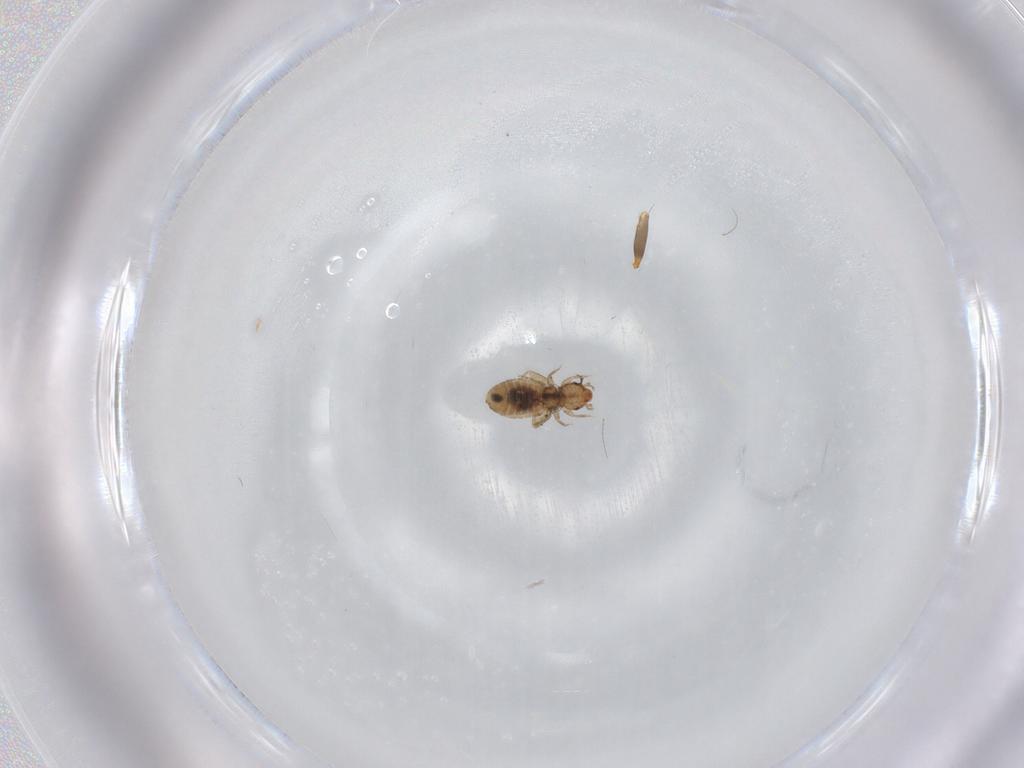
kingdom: Animalia
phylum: Arthropoda
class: Insecta
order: Psocodea
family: Liposcelididae
